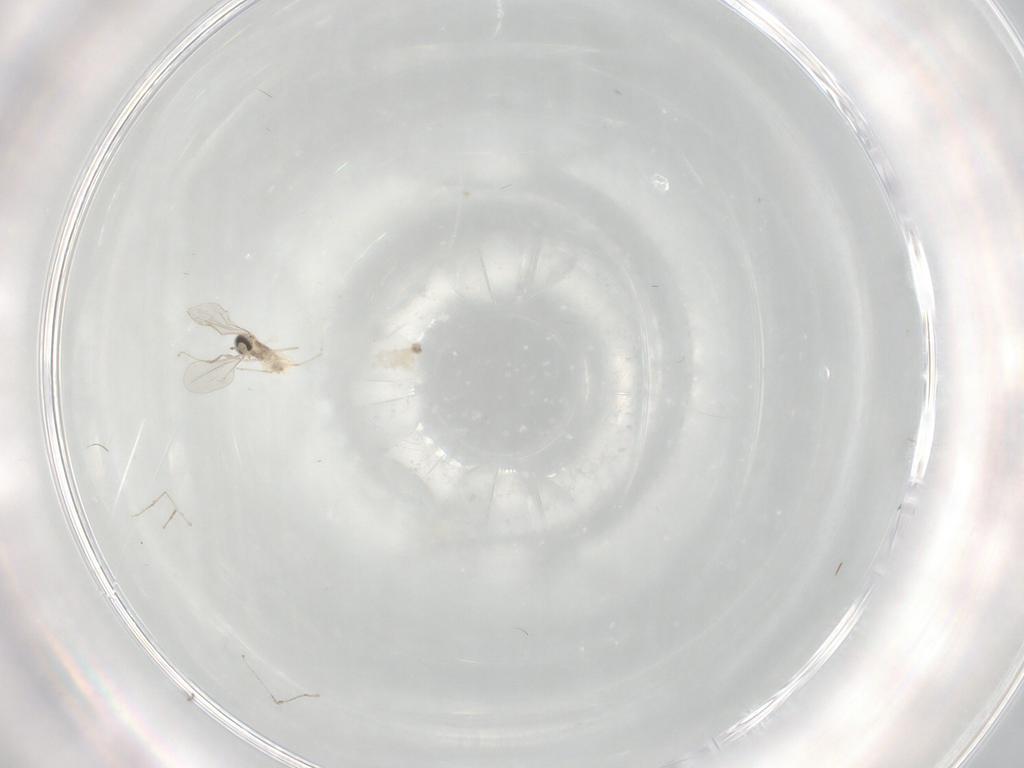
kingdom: Animalia
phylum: Arthropoda
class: Insecta
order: Diptera
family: Cecidomyiidae
